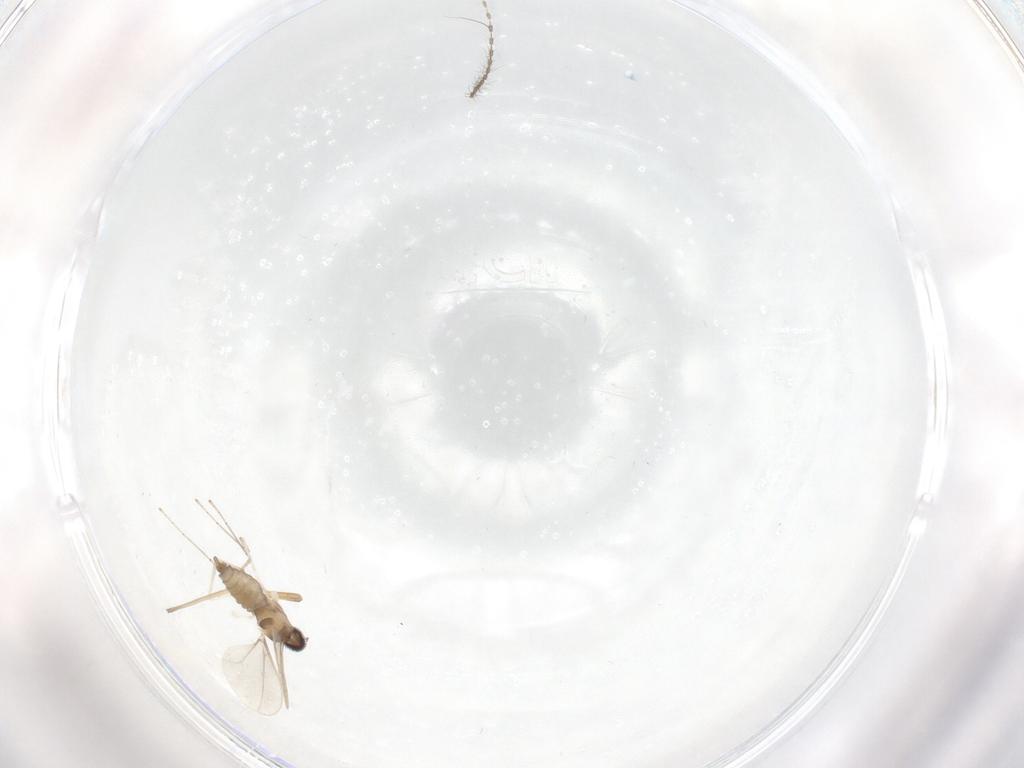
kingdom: Animalia
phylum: Arthropoda
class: Insecta
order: Diptera
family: Cecidomyiidae
